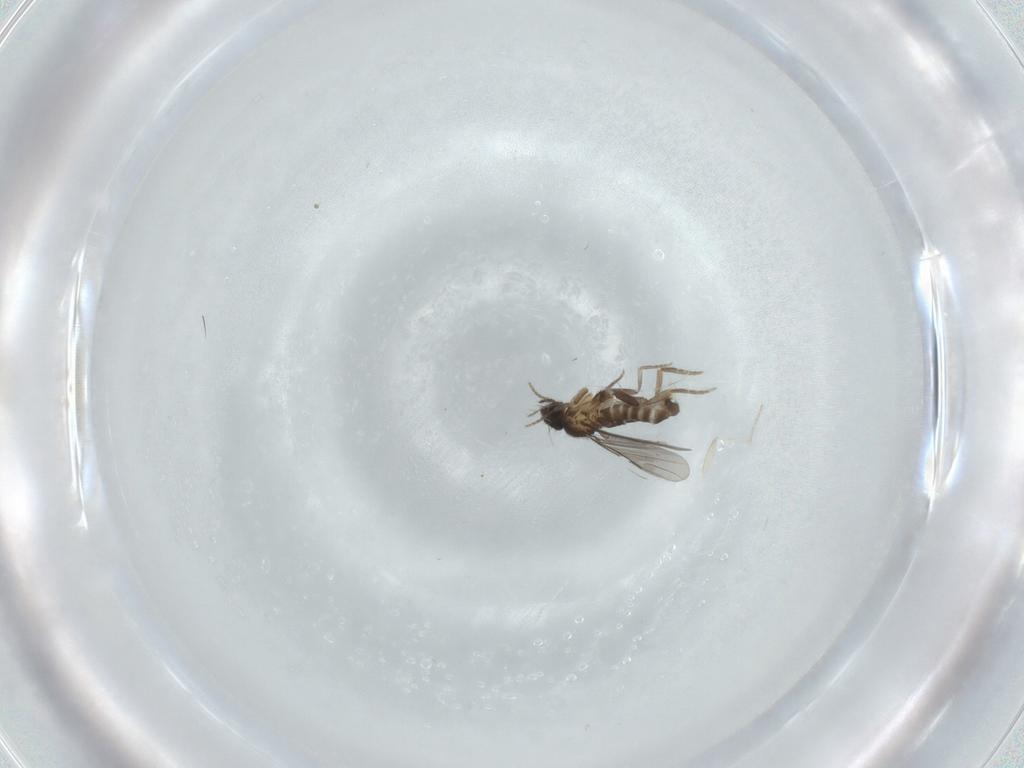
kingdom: Animalia
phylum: Arthropoda
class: Insecta
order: Diptera
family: Cecidomyiidae
